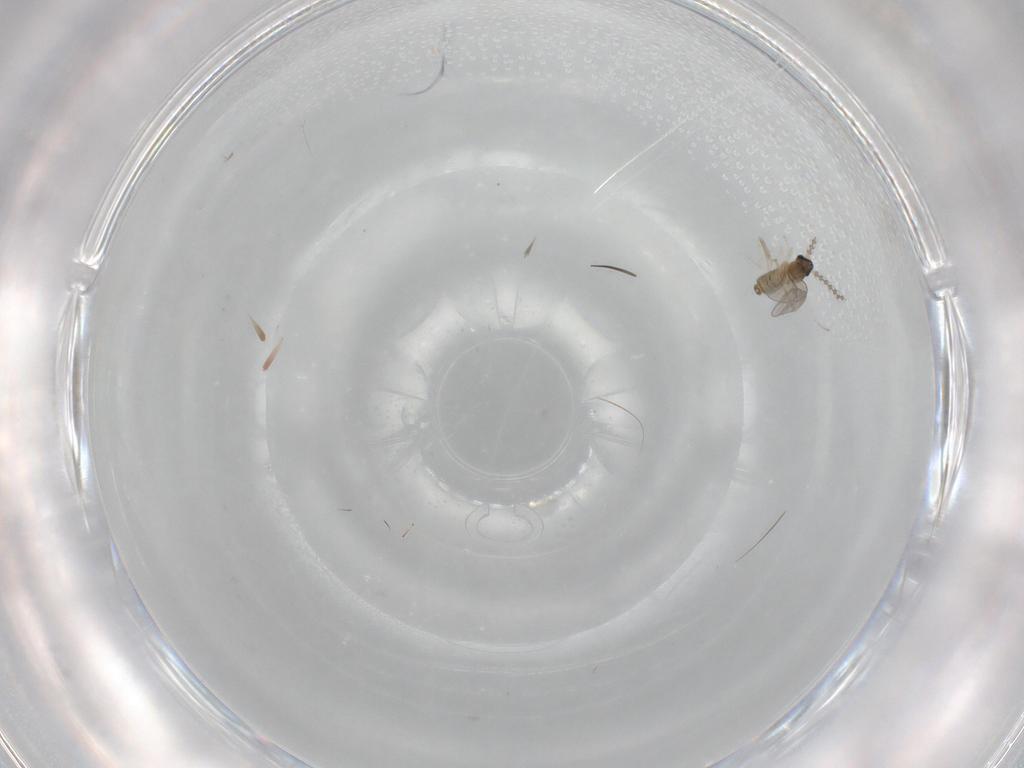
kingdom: Animalia
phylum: Arthropoda
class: Insecta
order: Diptera
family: Cecidomyiidae
